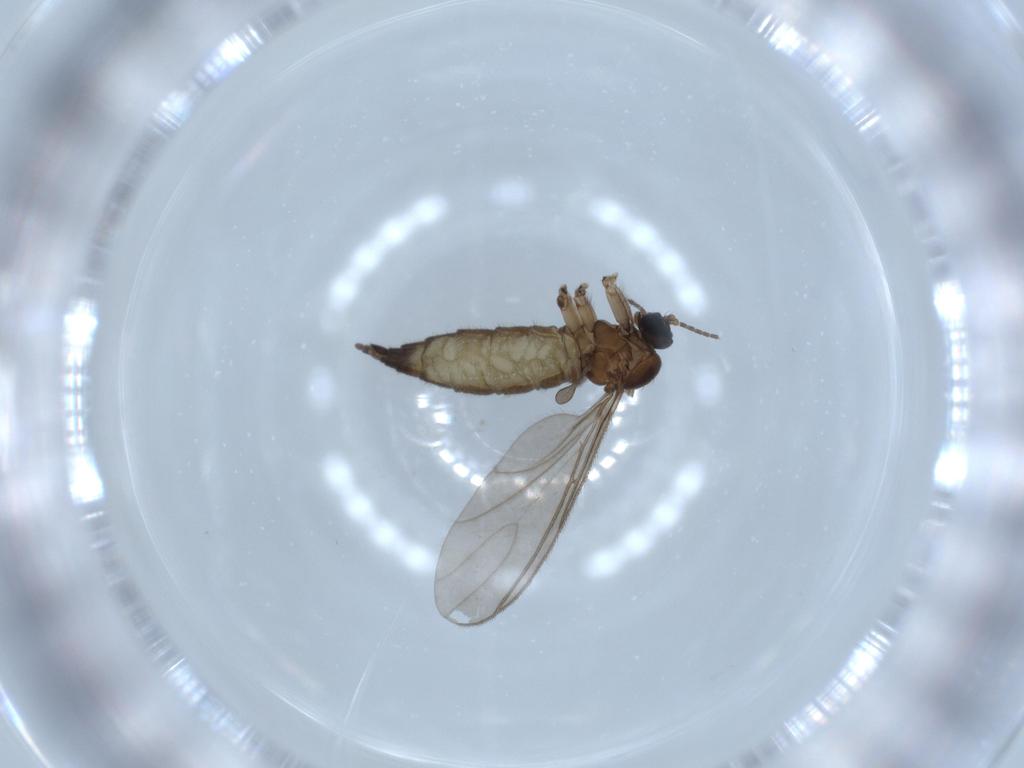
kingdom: Animalia
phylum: Arthropoda
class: Insecta
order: Diptera
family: Sciaridae
